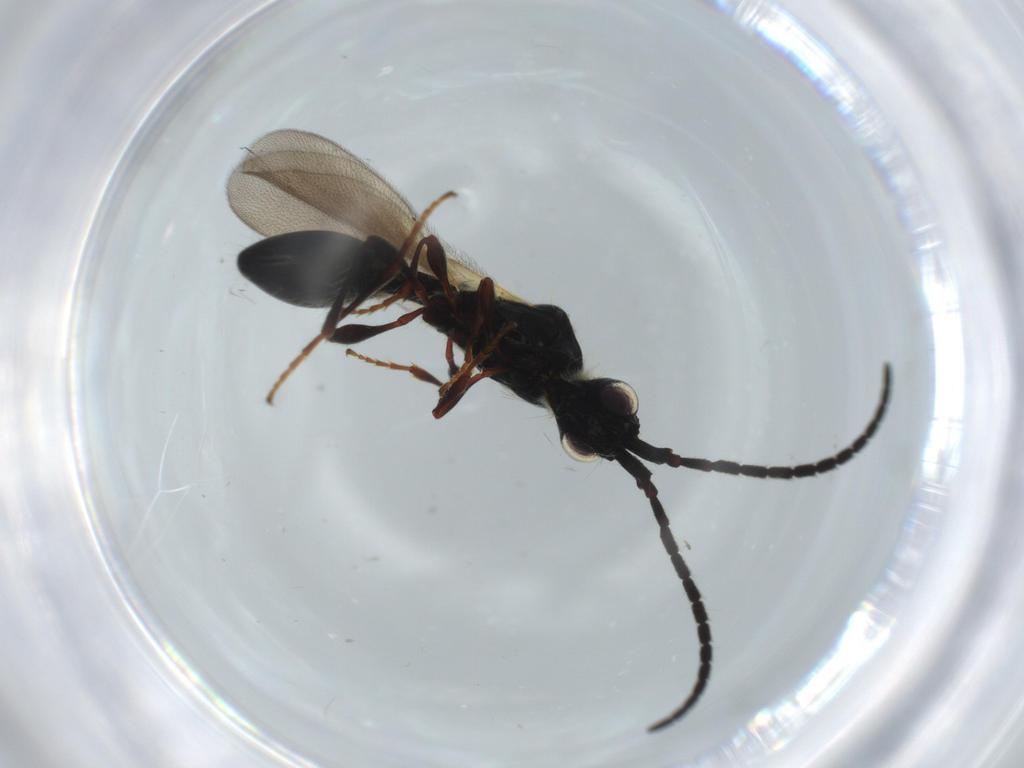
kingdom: Animalia
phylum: Arthropoda
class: Insecta
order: Hymenoptera
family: Diapriidae
